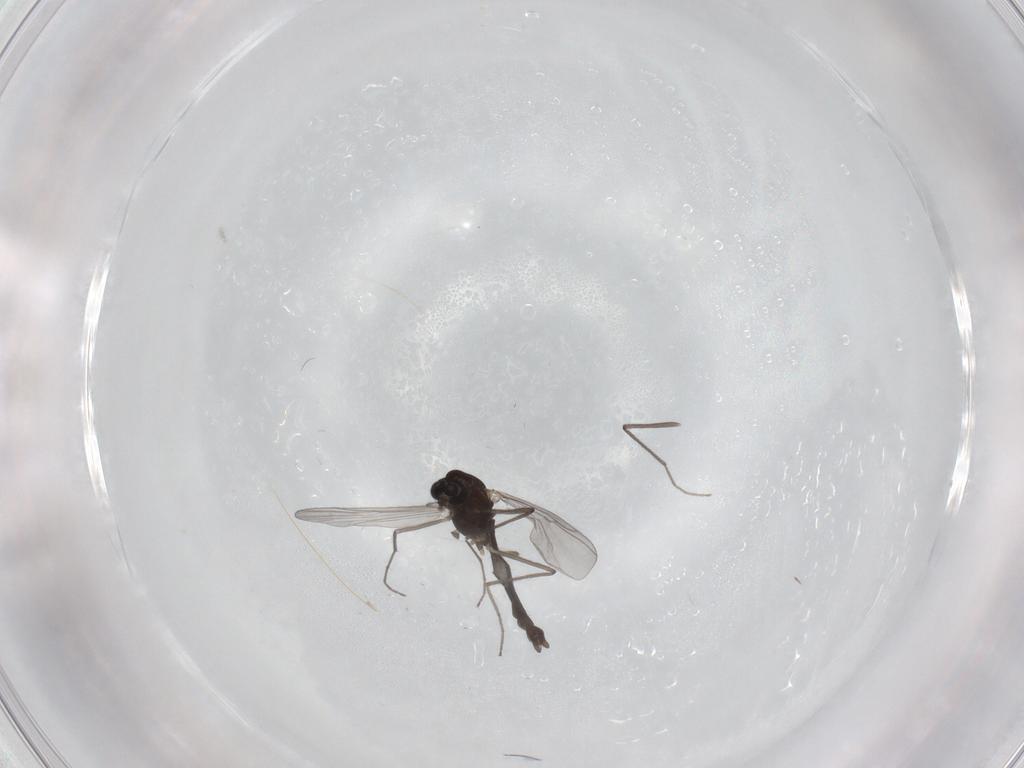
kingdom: Animalia
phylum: Arthropoda
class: Insecta
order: Diptera
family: Chironomidae
